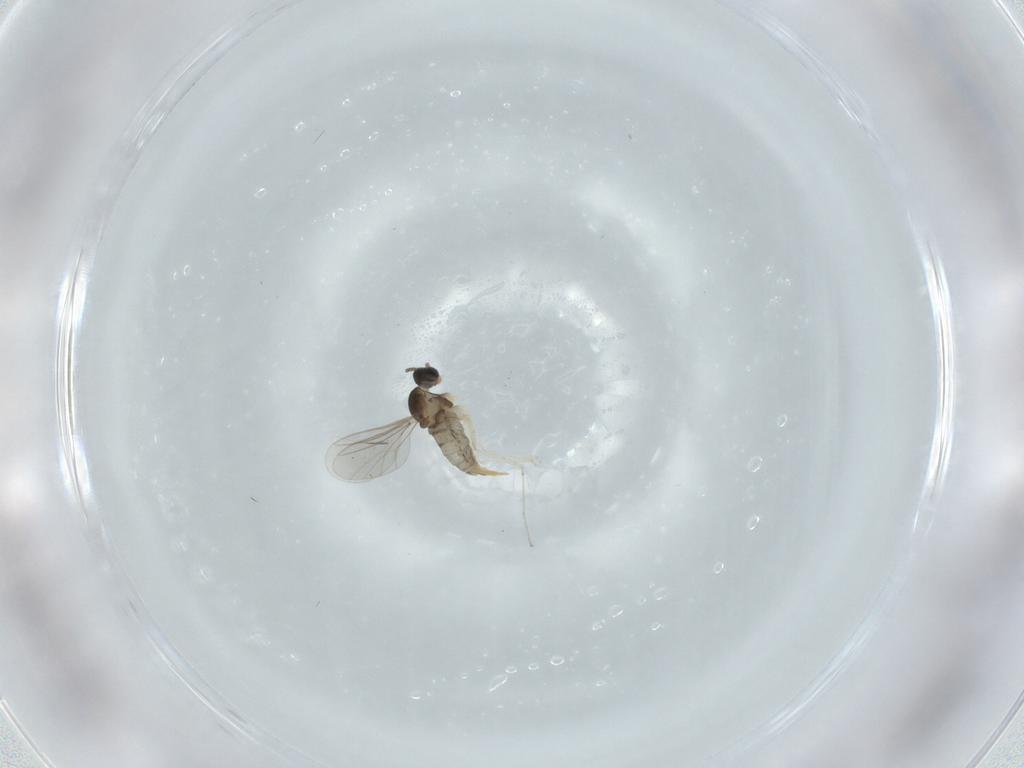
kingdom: Animalia
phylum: Arthropoda
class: Insecta
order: Diptera
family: Cecidomyiidae
